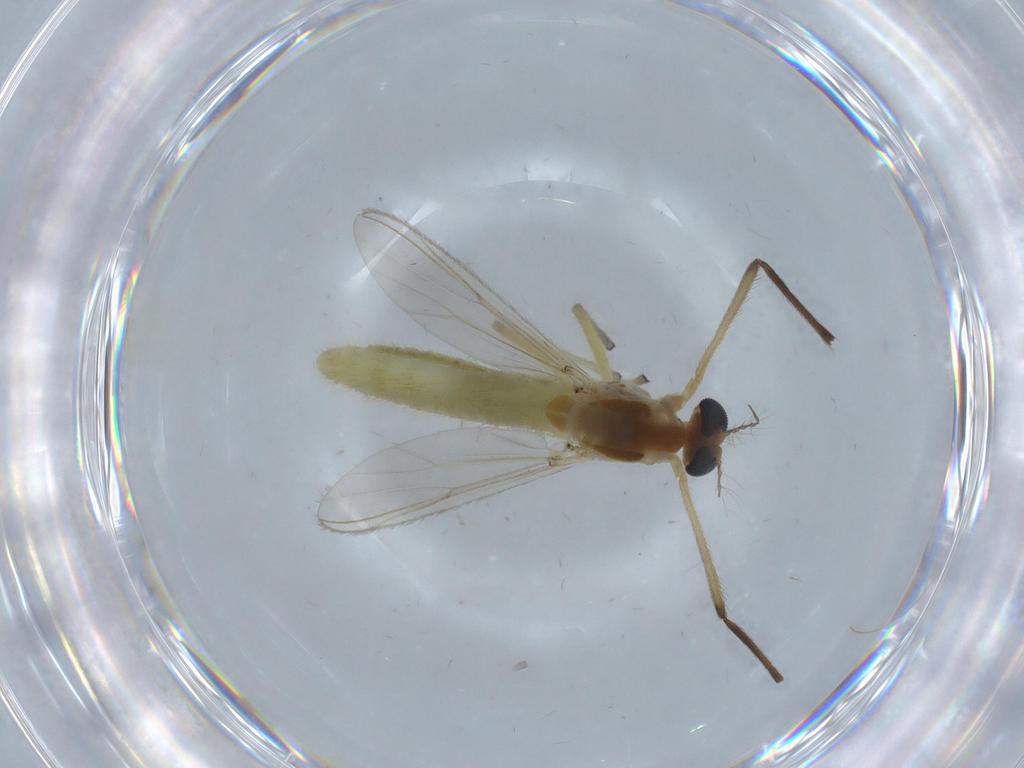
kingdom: Animalia
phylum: Arthropoda
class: Insecta
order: Diptera
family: Chironomidae
